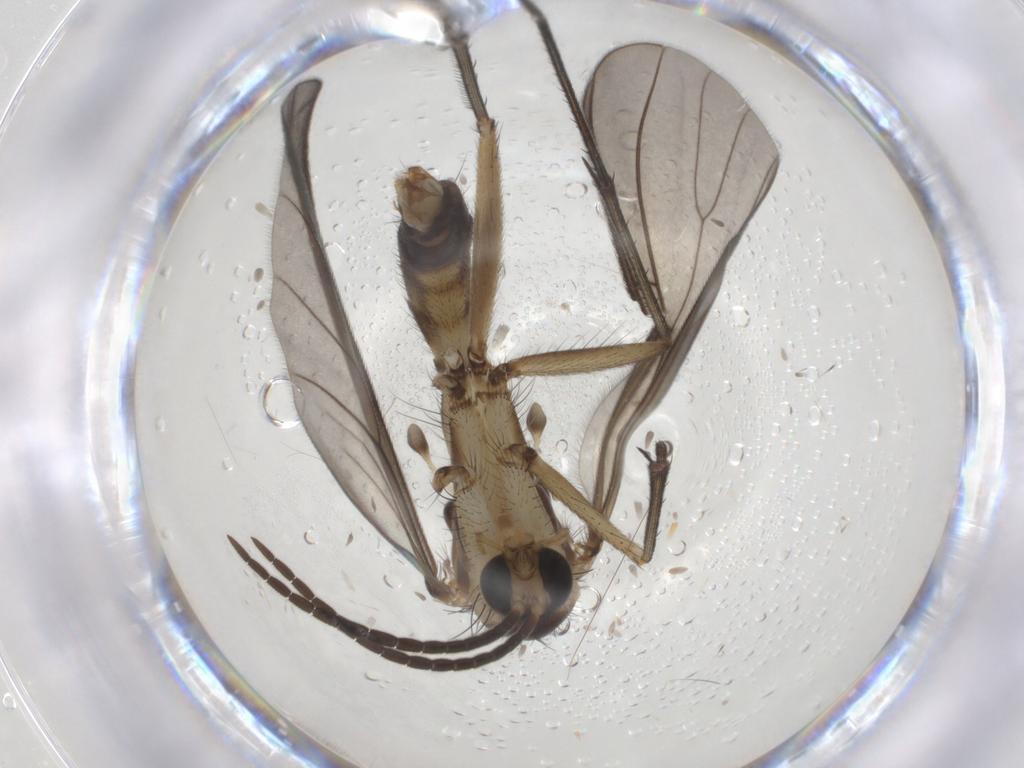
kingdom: Animalia
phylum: Arthropoda
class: Insecta
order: Diptera
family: Mycetophilidae
